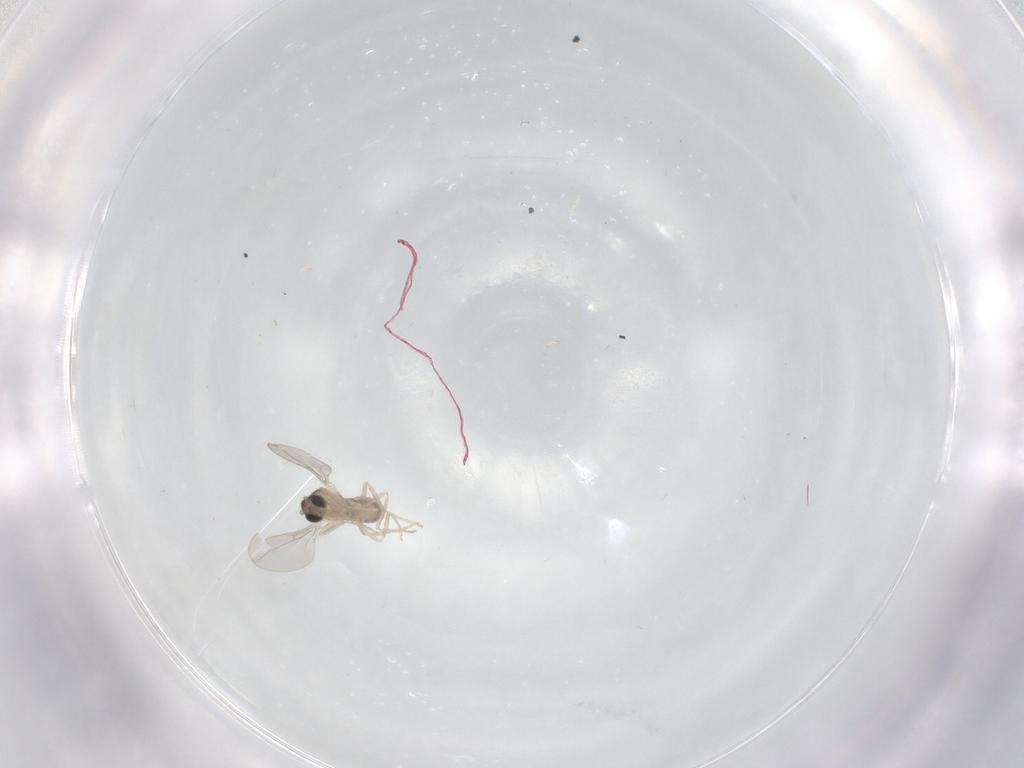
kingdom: Animalia
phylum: Arthropoda
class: Insecta
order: Diptera
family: Cecidomyiidae
